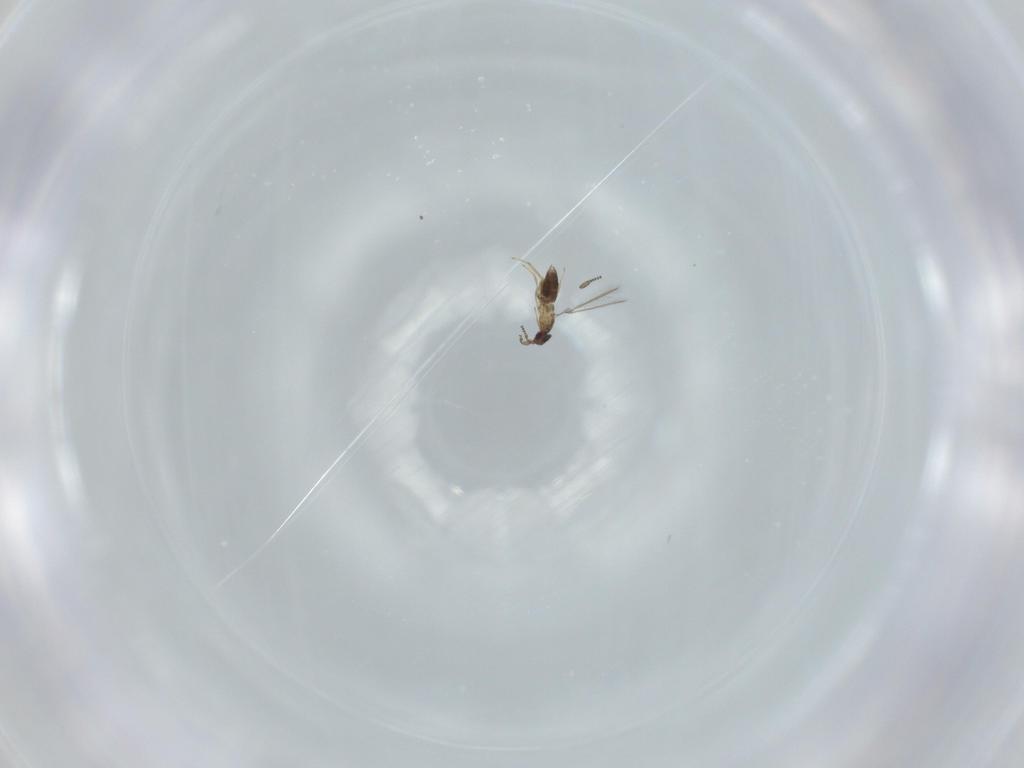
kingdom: Animalia
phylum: Arthropoda
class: Insecta
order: Hymenoptera
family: Mymaridae
